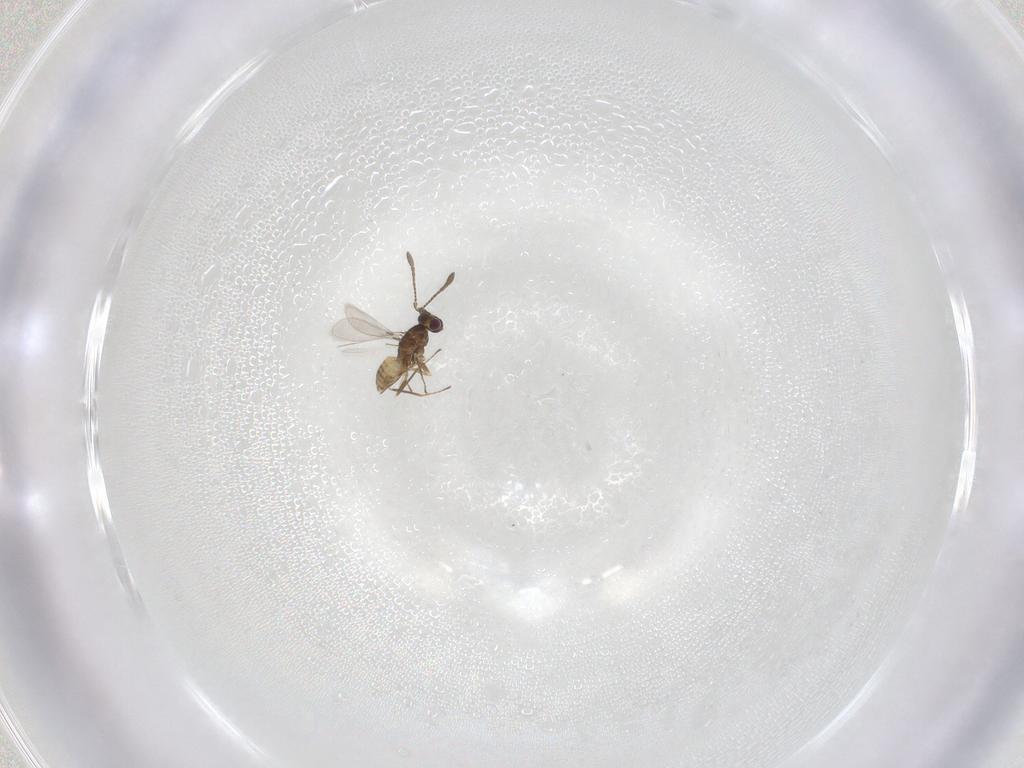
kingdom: Animalia
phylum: Arthropoda
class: Insecta
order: Hymenoptera
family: Mymaridae
